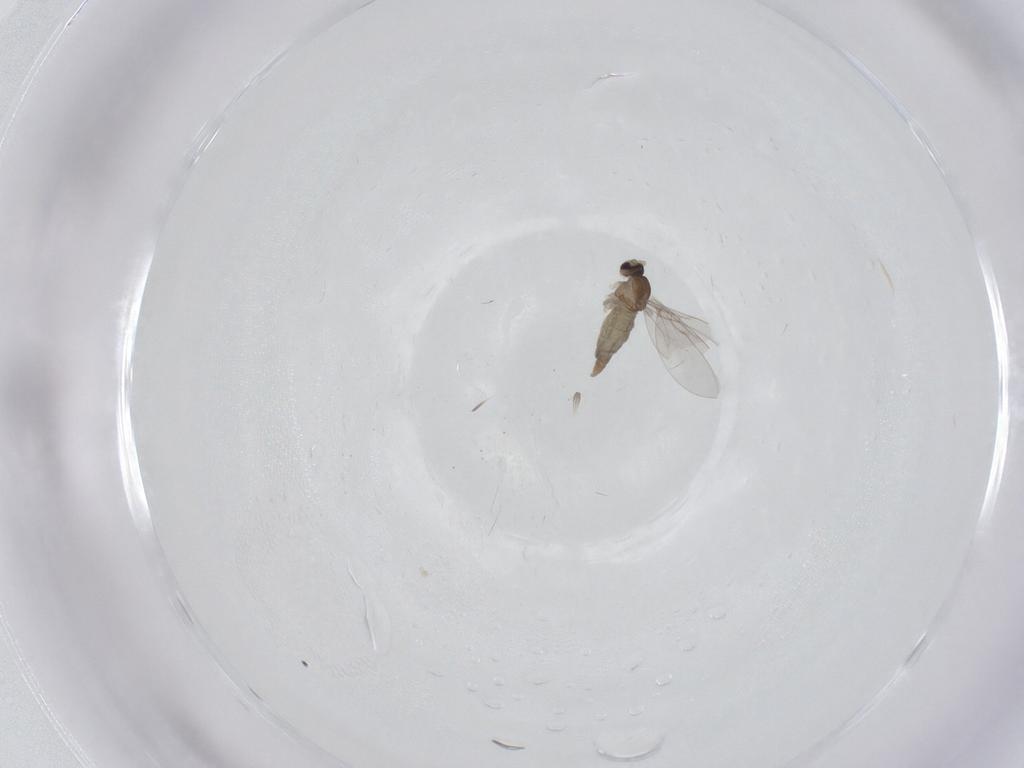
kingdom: Animalia
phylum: Arthropoda
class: Insecta
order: Diptera
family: Cecidomyiidae
